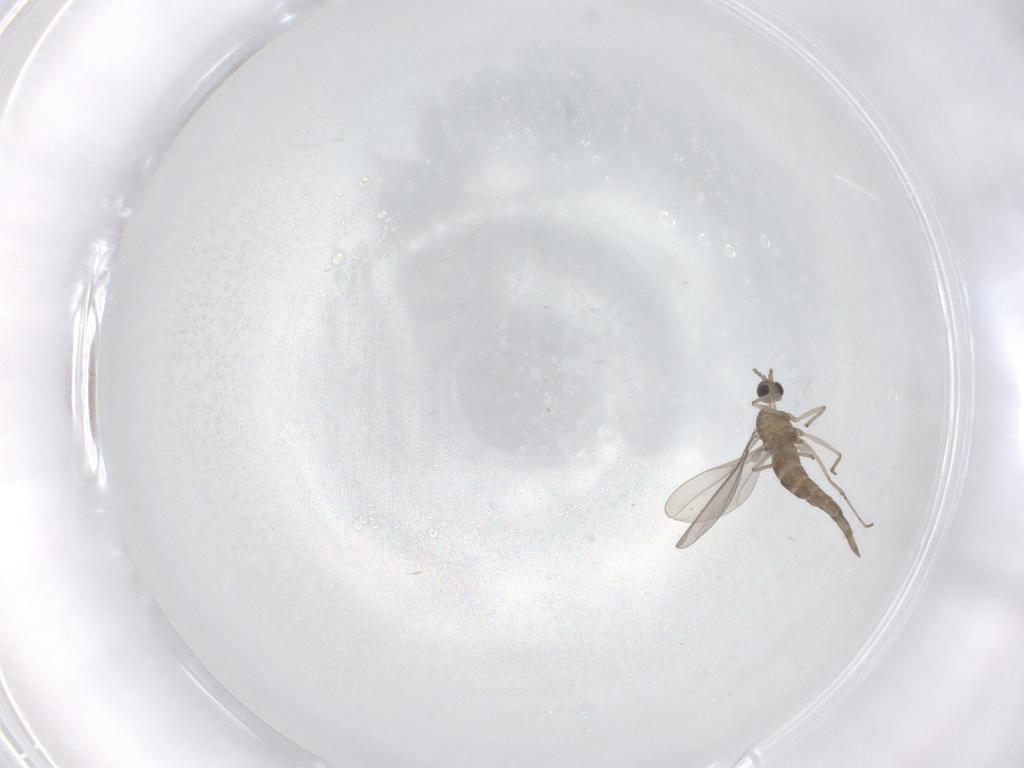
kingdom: Animalia
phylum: Arthropoda
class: Insecta
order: Diptera
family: Cecidomyiidae
